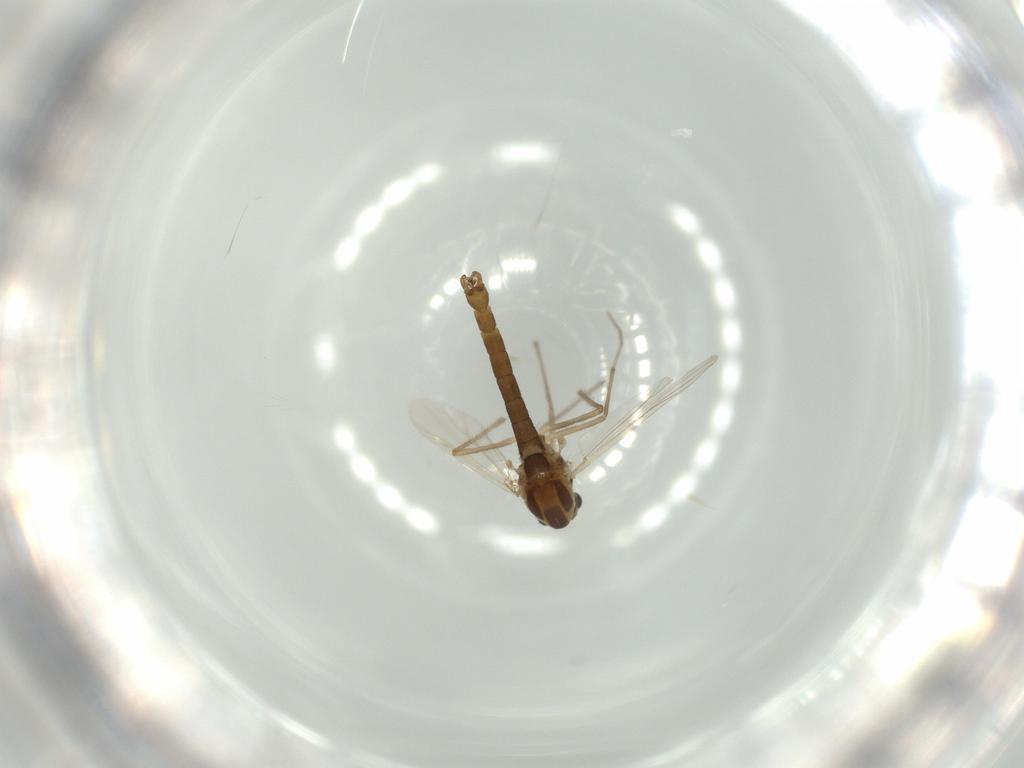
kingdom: Animalia
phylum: Arthropoda
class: Insecta
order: Diptera
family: Chironomidae
